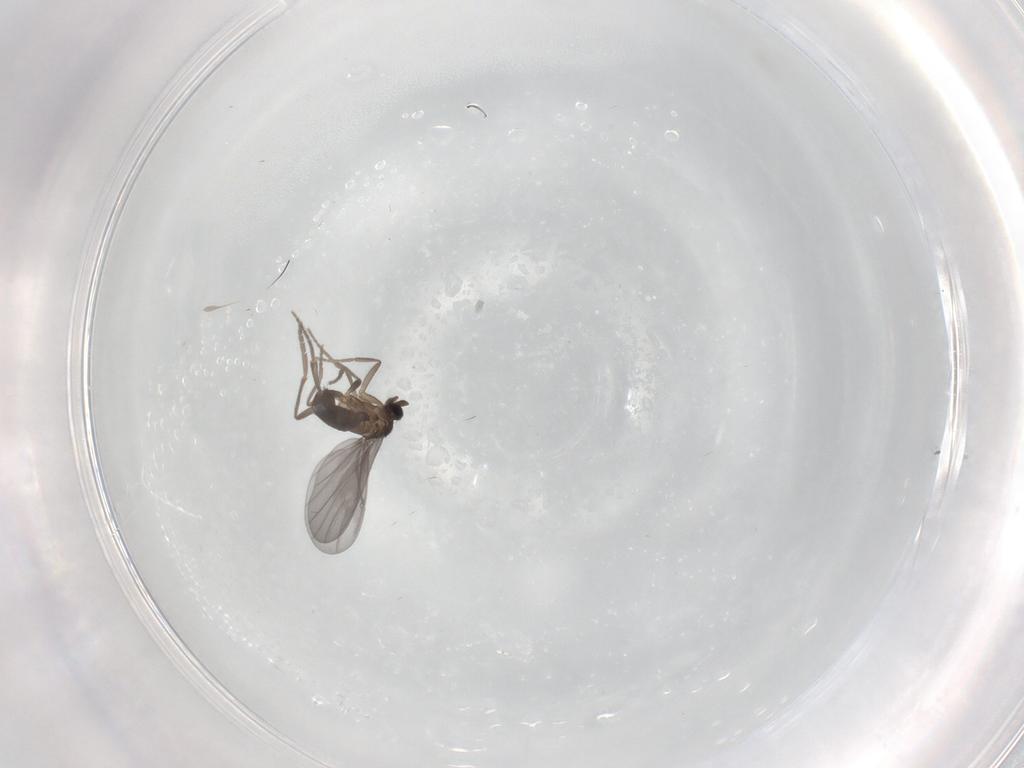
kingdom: Animalia
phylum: Arthropoda
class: Insecta
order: Diptera
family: Phoridae
